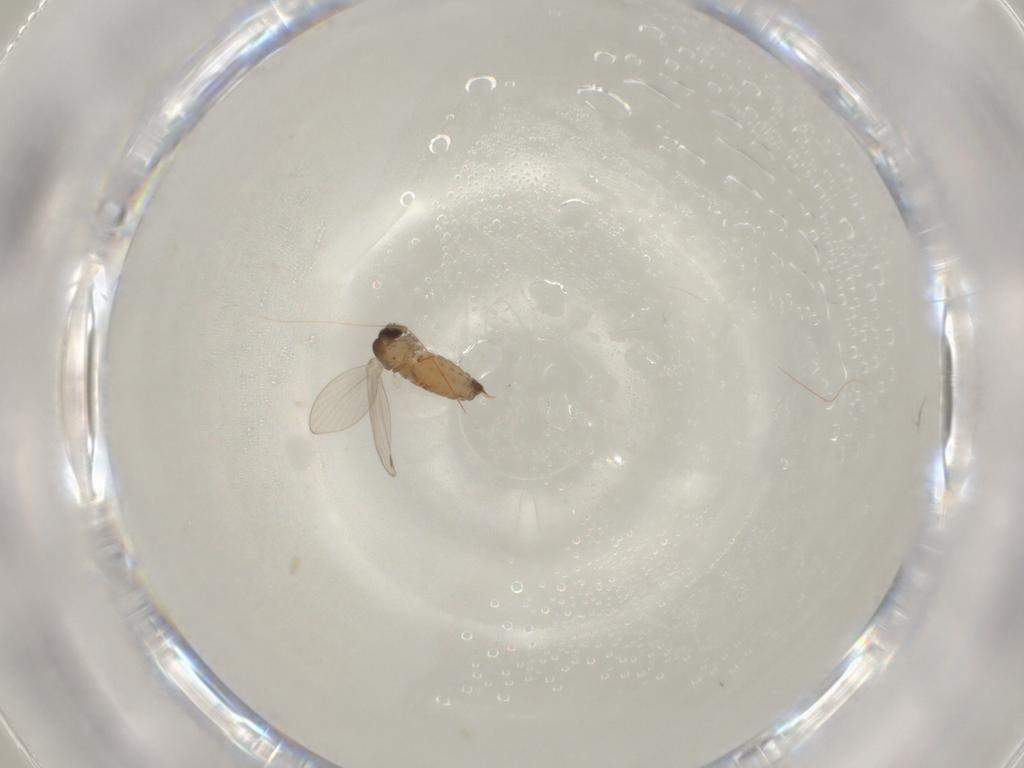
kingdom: Animalia
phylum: Arthropoda
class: Insecta
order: Diptera
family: Psychodidae
